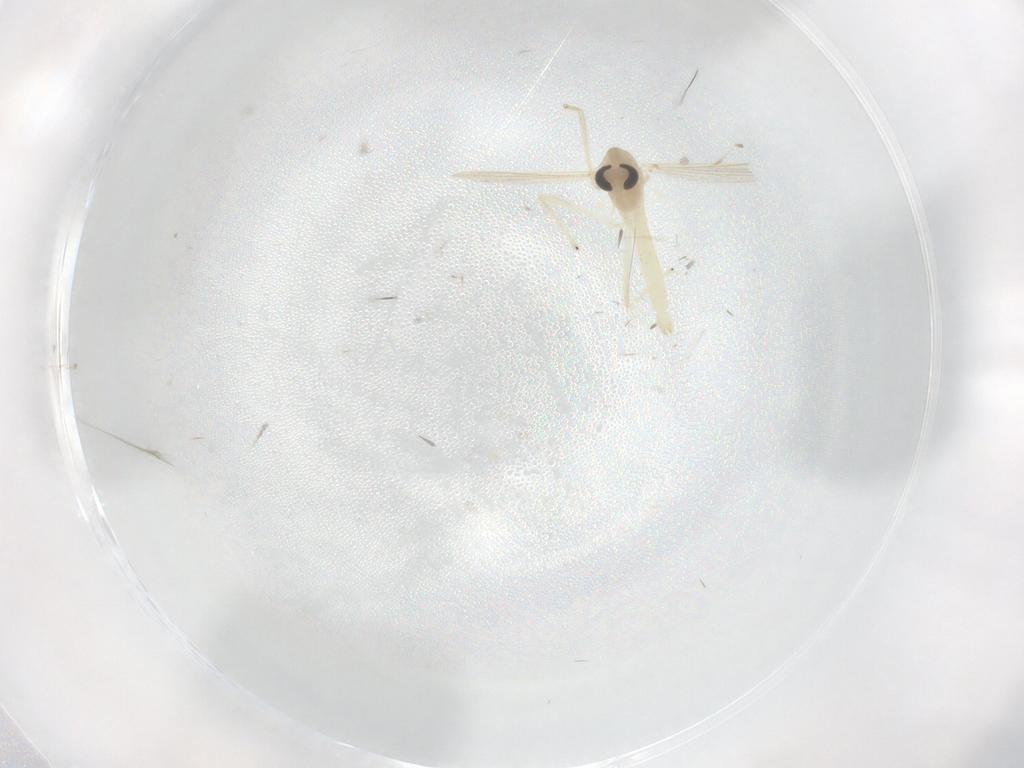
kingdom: Animalia
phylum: Arthropoda
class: Insecta
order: Diptera
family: Chironomidae
